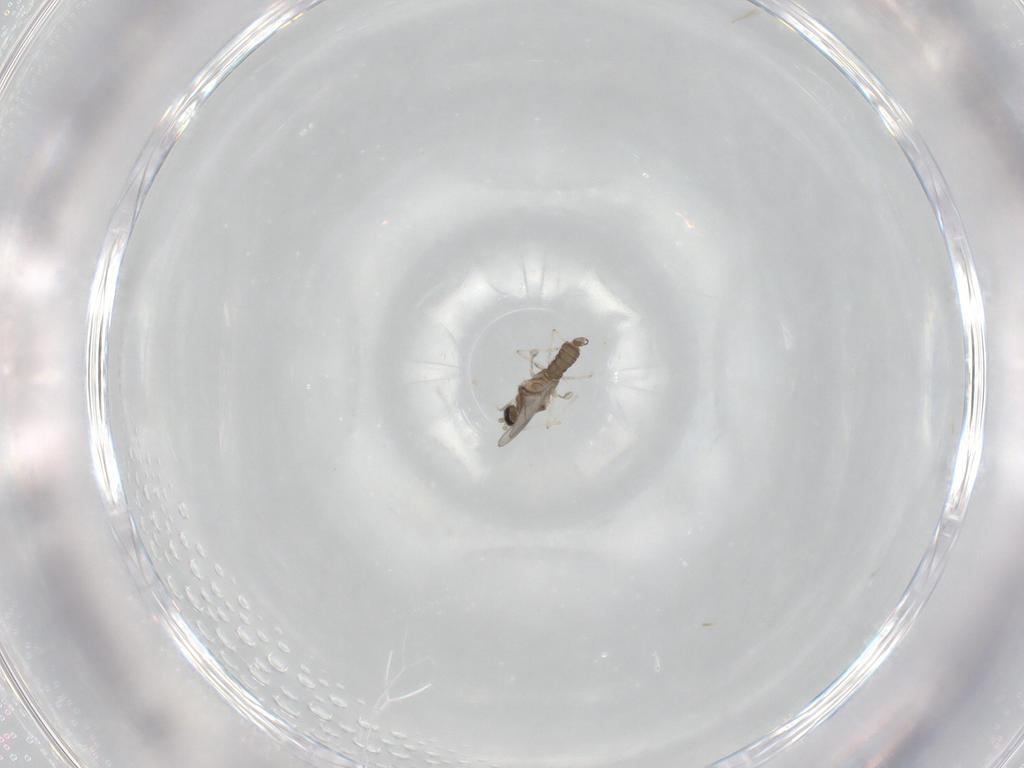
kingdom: Animalia
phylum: Arthropoda
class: Insecta
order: Diptera
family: Cecidomyiidae
